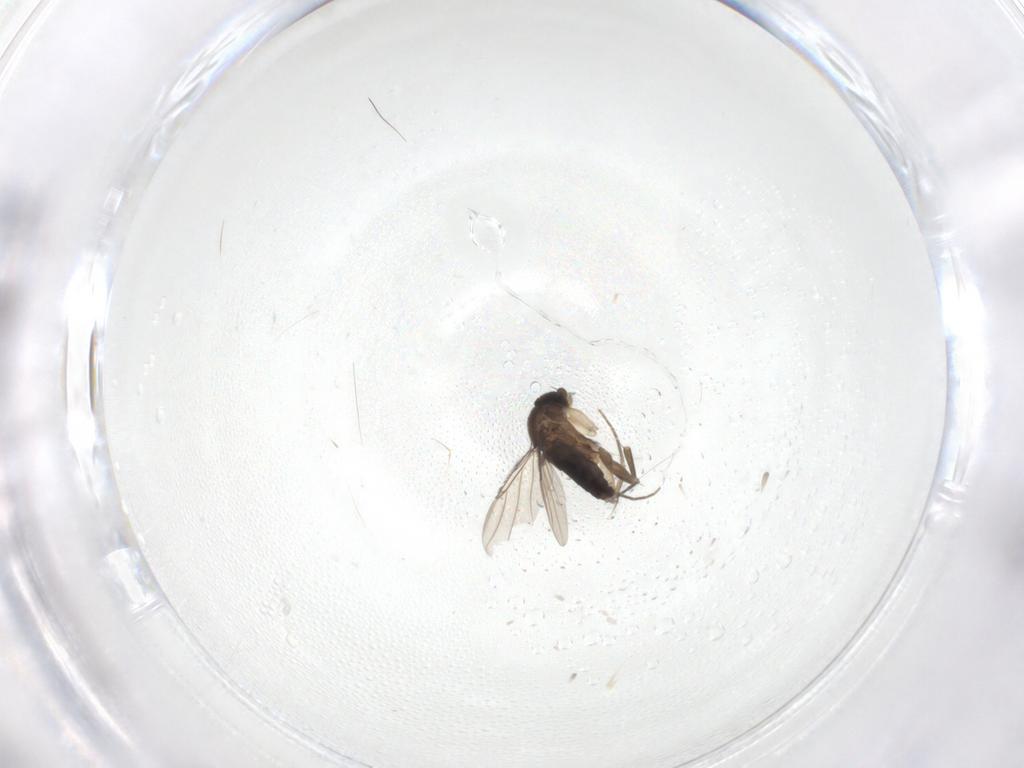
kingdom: Animalia
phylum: Arthropoda
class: Insecta
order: Diptera
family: Phoridae
